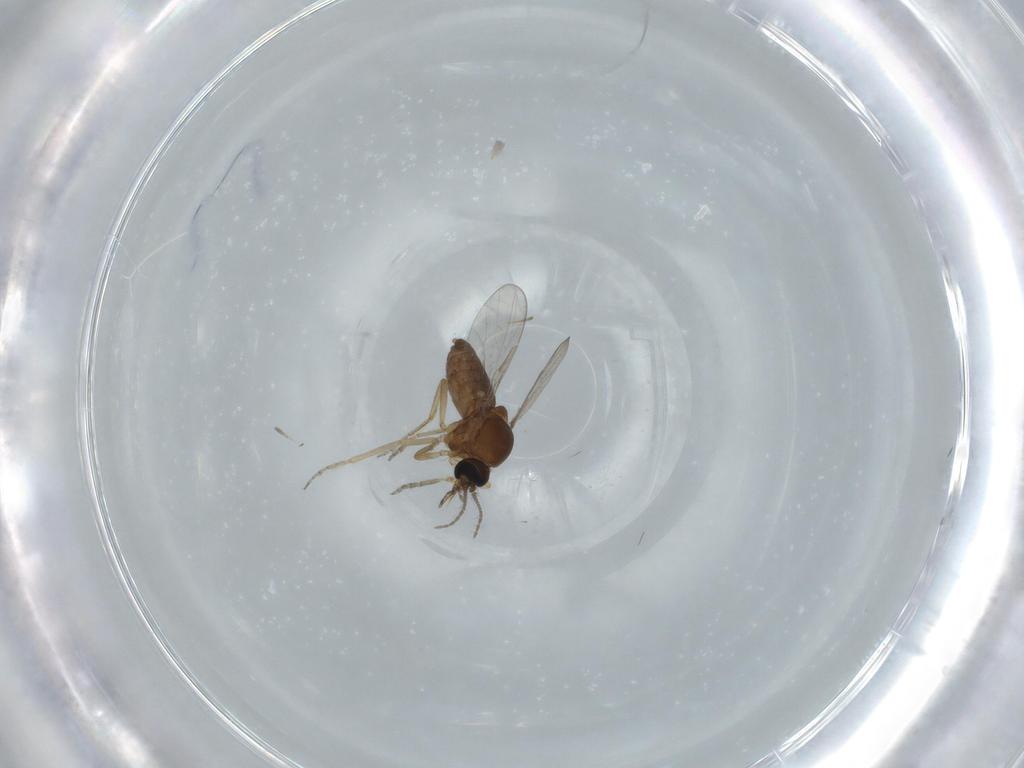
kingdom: Animalia
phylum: Arthropoda
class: Insecta
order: Diptera
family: Ceratopogonidae
